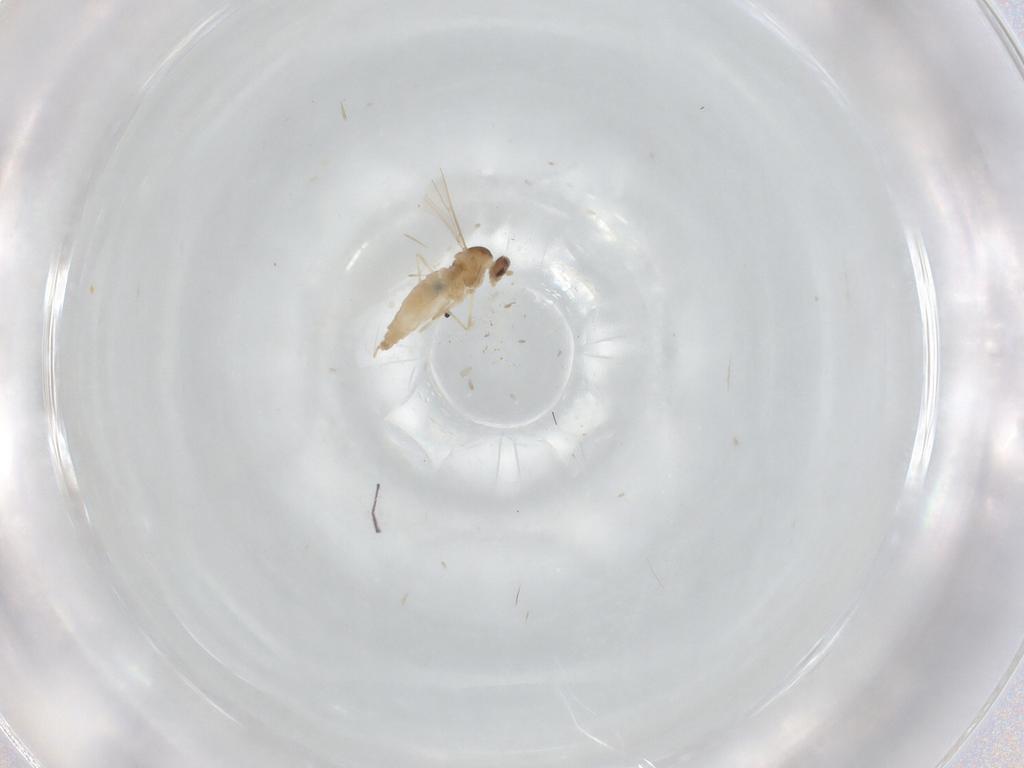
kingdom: Animalia
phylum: Arthropoda
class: Insecta
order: Diptera
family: Cecidomyiidae
